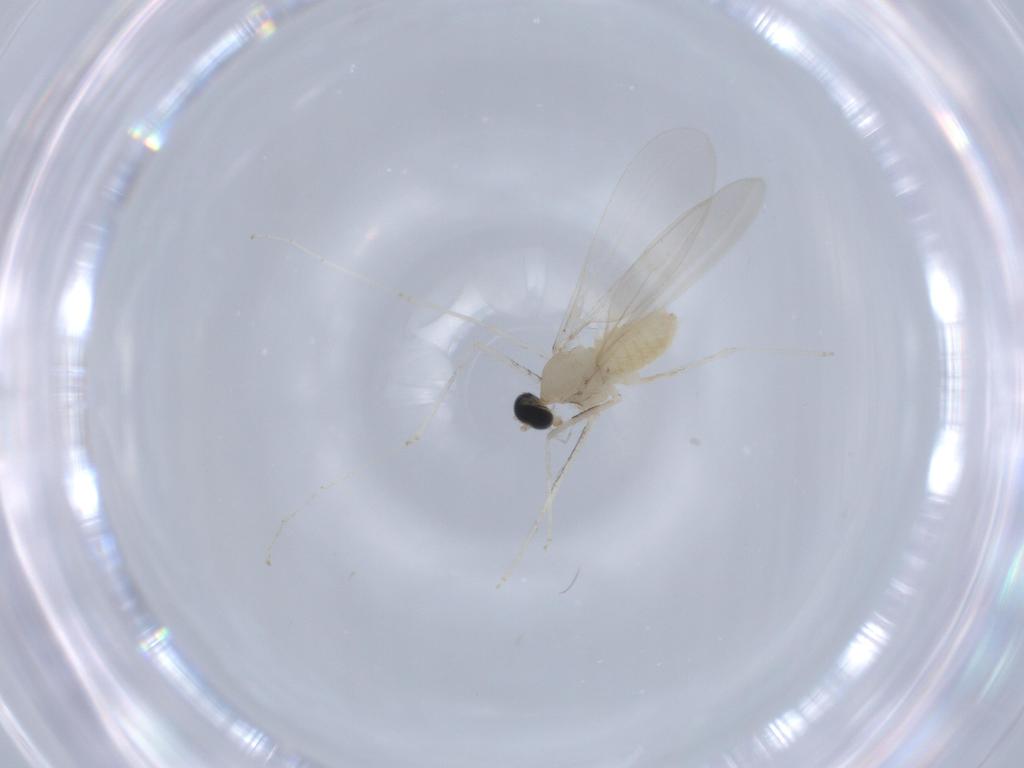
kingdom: Animalia
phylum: Arthropoda
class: Insecta
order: Diptera
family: Cecidomyiidae
